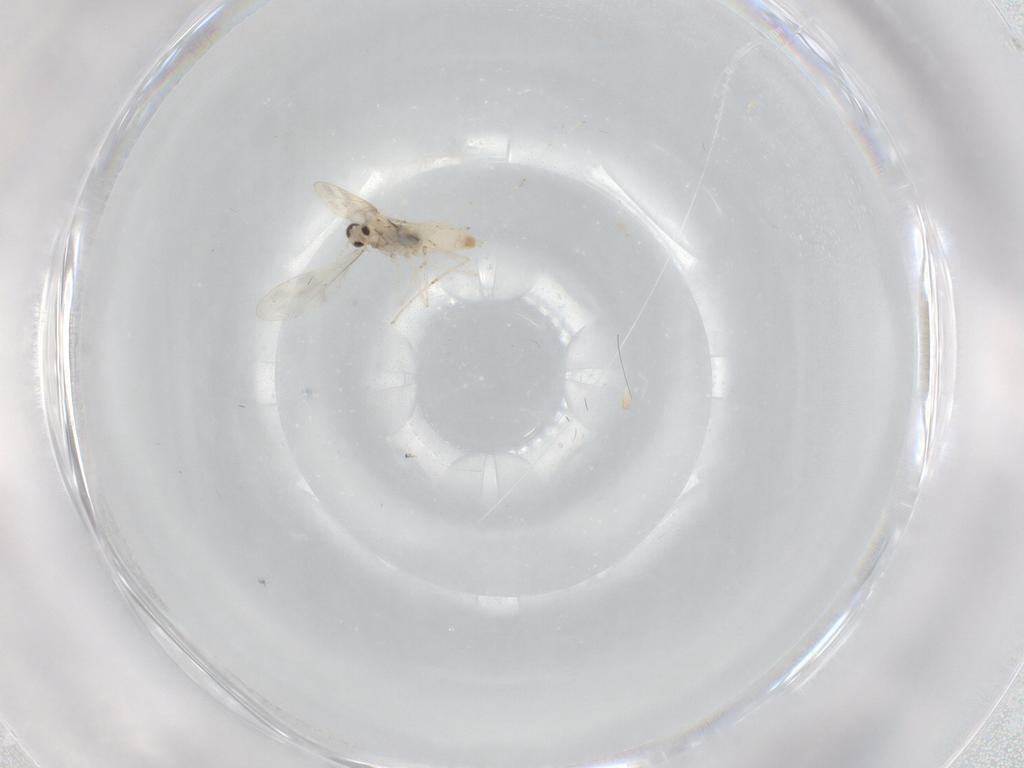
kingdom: Animalia
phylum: Arthropoda
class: Insecta
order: Diptera
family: Cecidomyiidae
